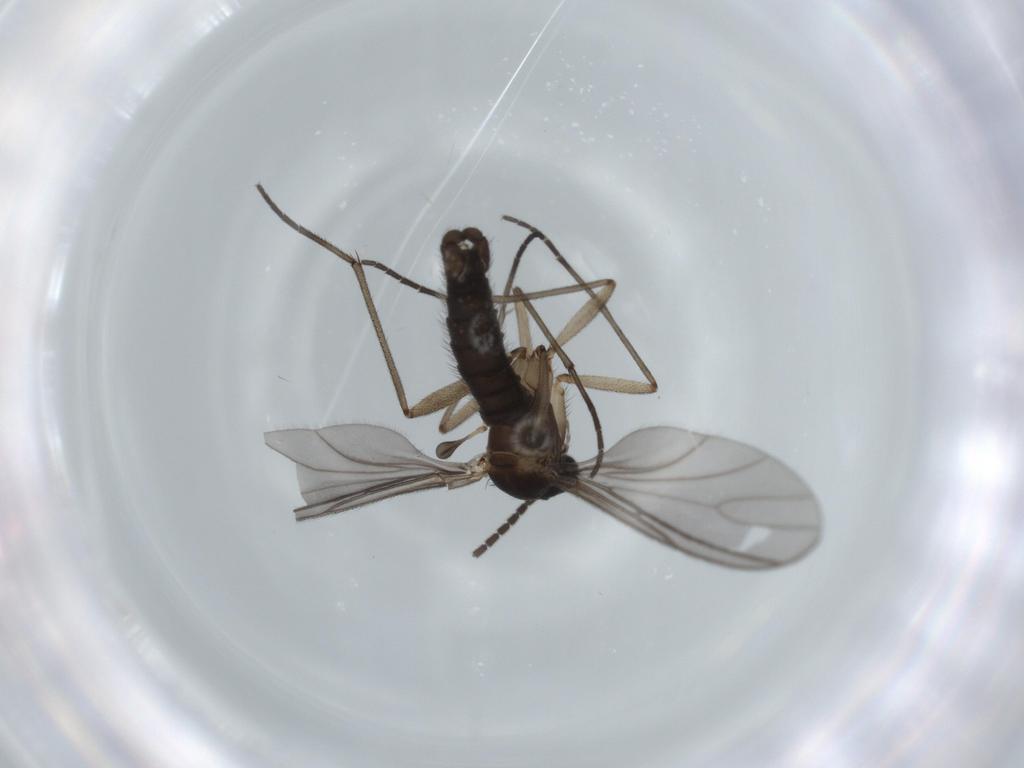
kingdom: Animalia
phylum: Arthropoda
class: Insecta
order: Diptera
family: Sciaridae
